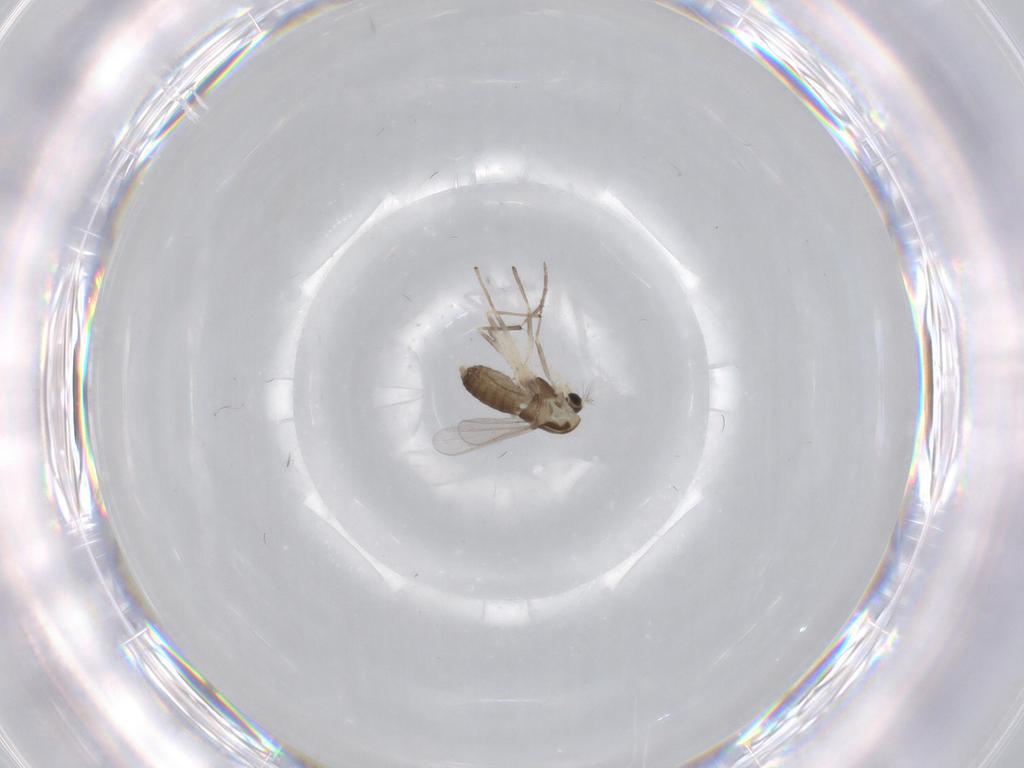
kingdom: Animalia
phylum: Arthropoda
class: Insecta
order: Diptera
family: Chironomidae
